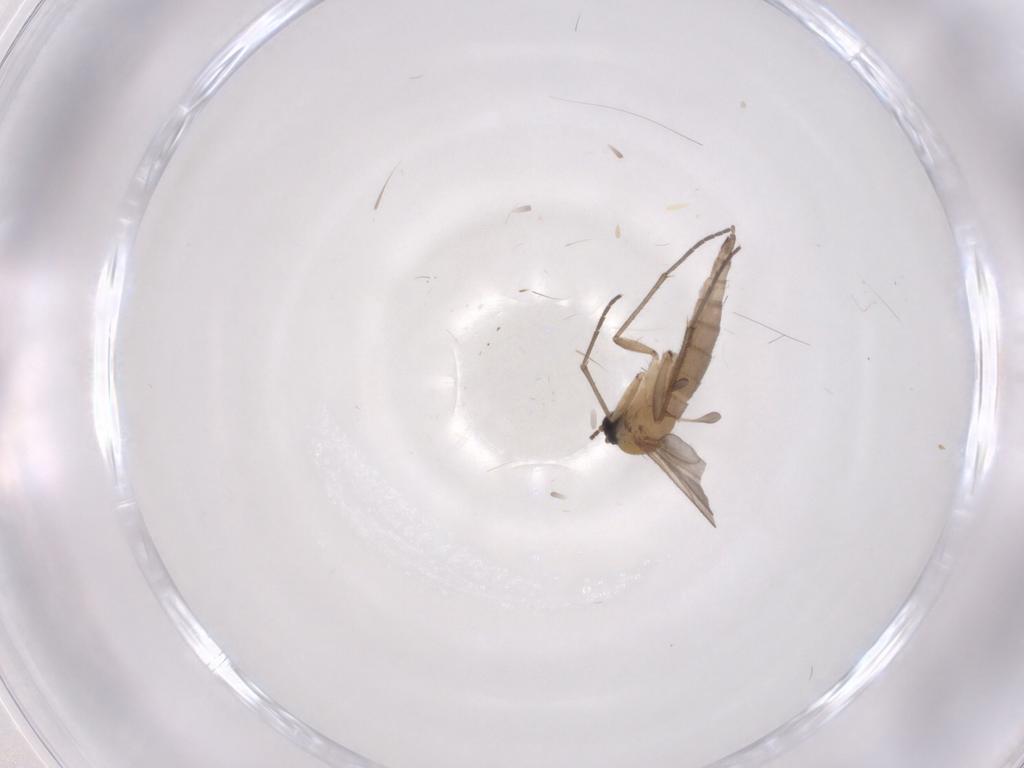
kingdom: Animalia
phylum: Arthropoda
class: Insecta
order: Diptera
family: Sciaridae
